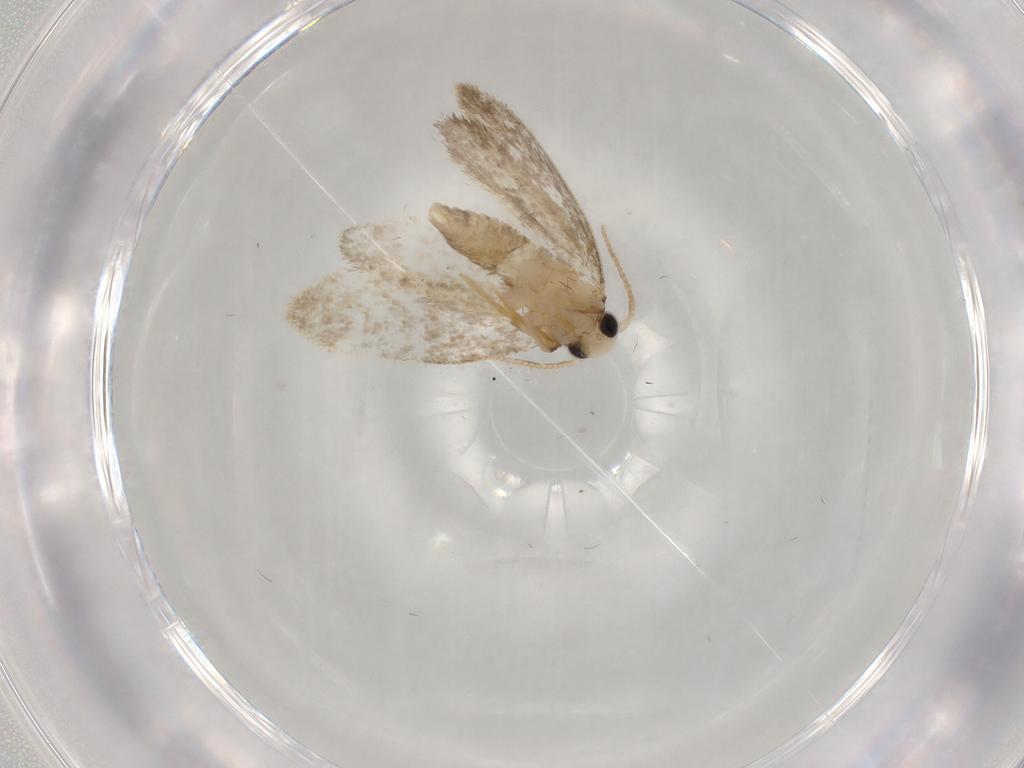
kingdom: Animalia
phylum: Arthropoda
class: Insecta
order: Lepidoptera
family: Psychidae
